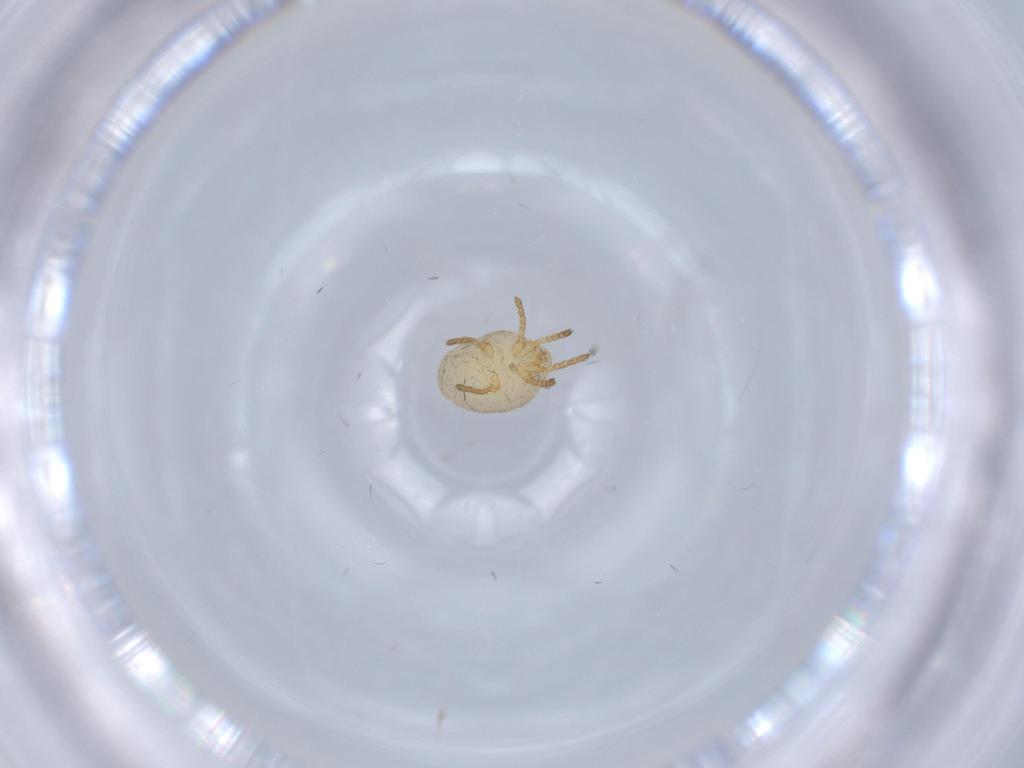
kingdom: Animalia
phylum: Arthropoda
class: Arachnida
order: Trombidiformes
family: Calyptostomatidae
